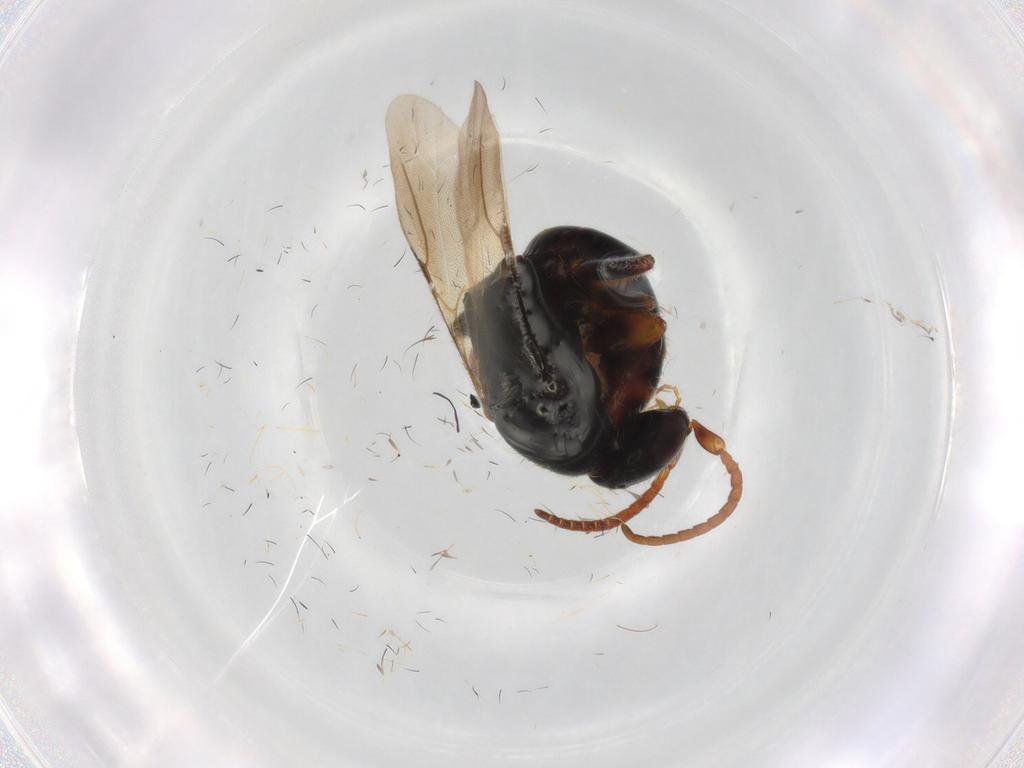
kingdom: Animalia
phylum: Arthropoda
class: Insecta
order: Hymenoptera
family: Bethylidae
